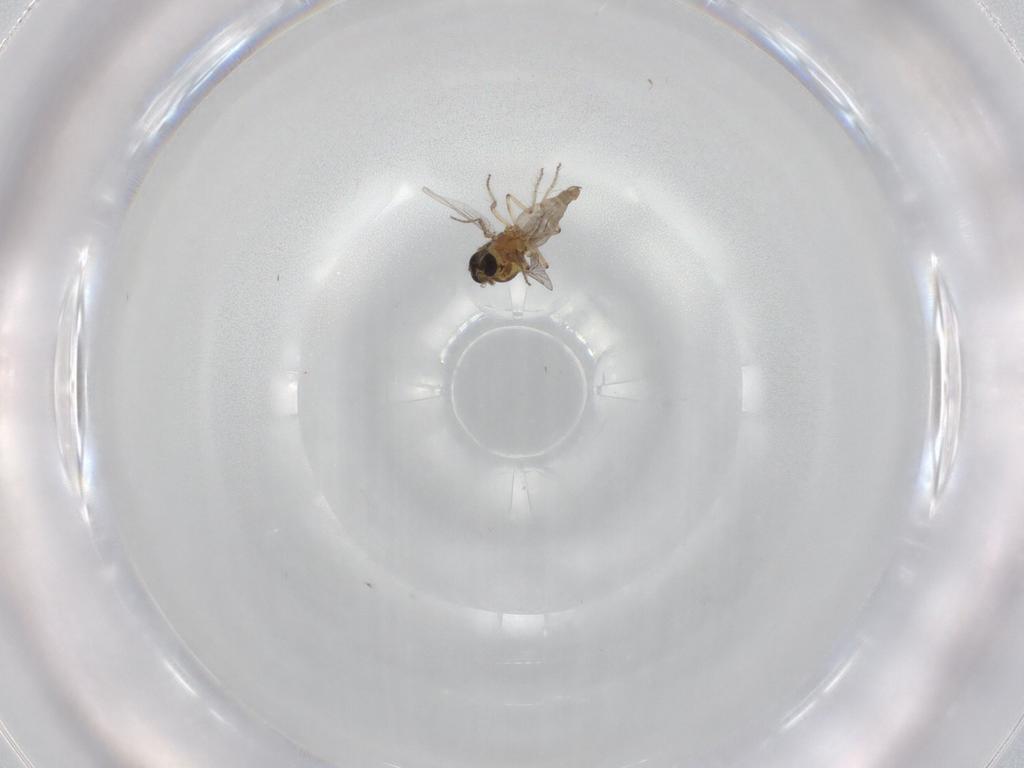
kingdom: Animalia
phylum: Arthropoda
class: Insecta
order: Diptera
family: Ceratopogonidae
